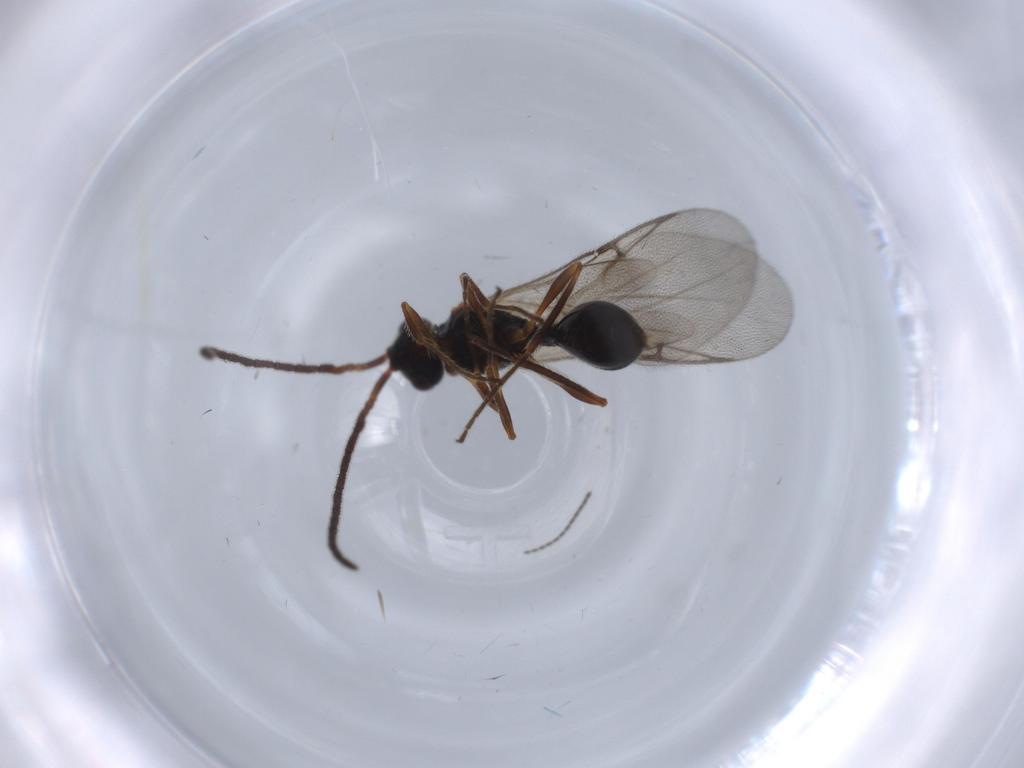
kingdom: Animalia
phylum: Arthropoda
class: Insecta
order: Hymenoptera
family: Diapriidae
